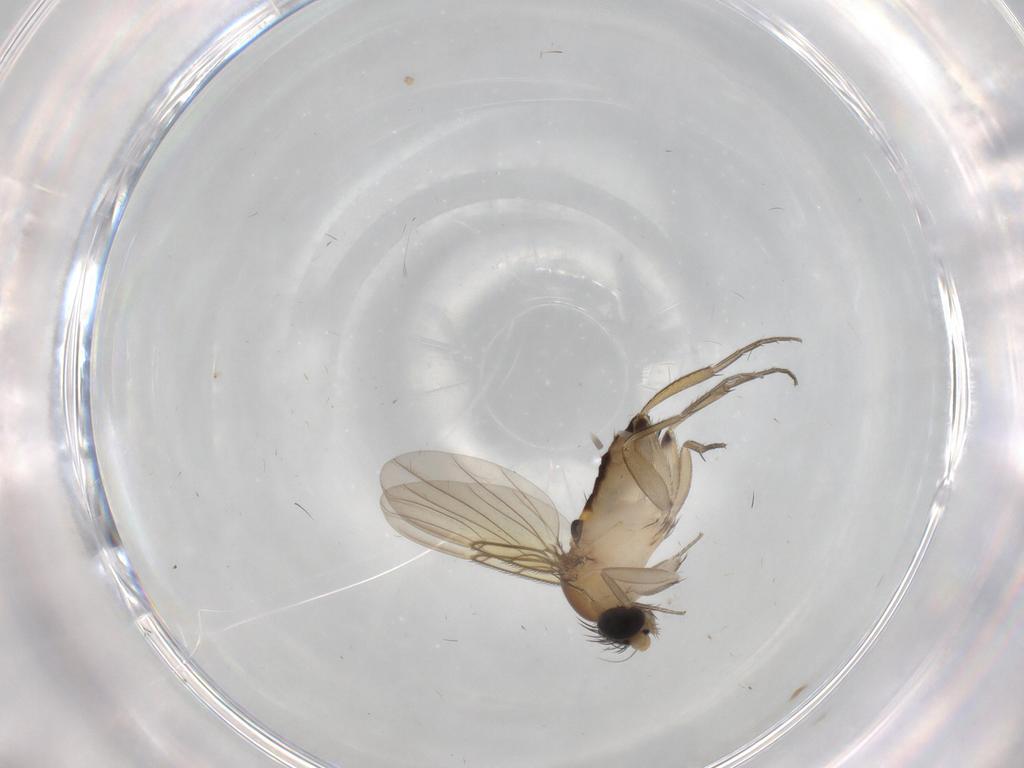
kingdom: Animalia
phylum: Arthropoda
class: Insecta
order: Diptera
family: Phoridae
